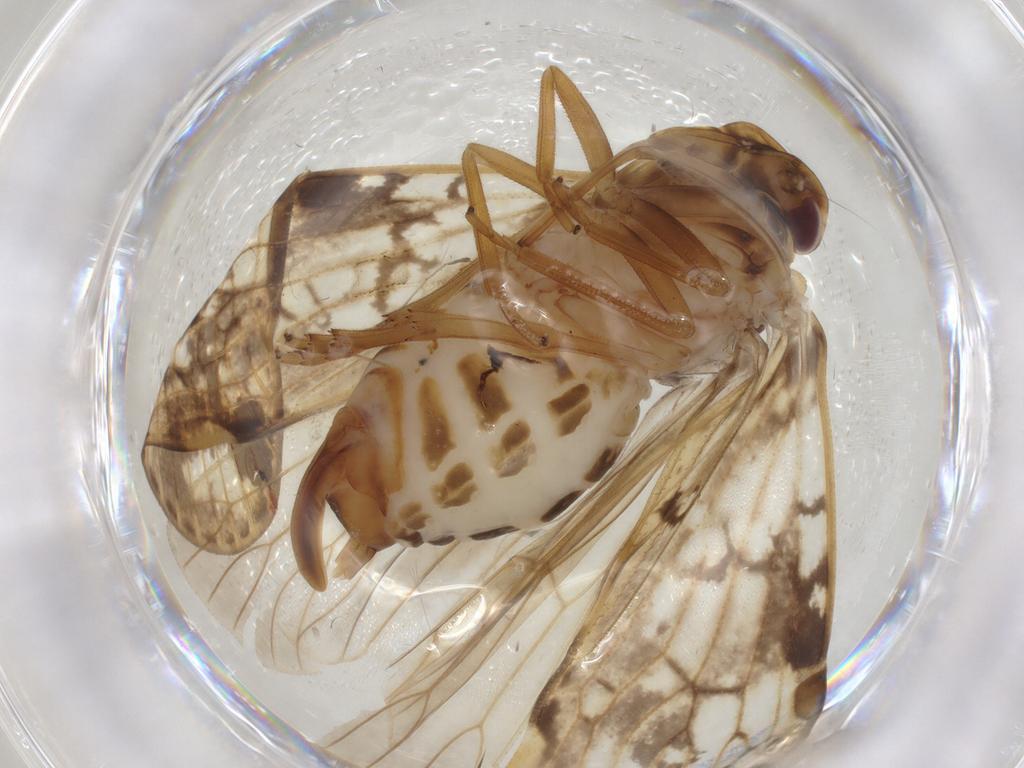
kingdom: Animalia
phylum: Arthropoda
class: Insecta
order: Hemiptera
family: Cixiidae
